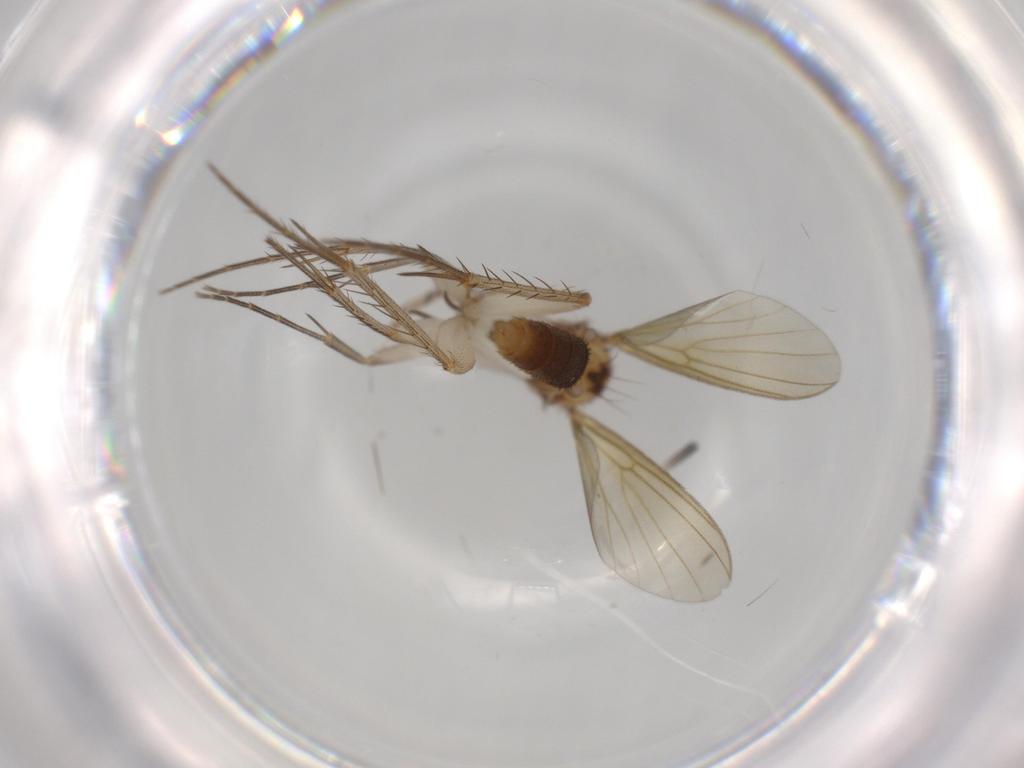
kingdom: Animalia
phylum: Arthropoda
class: Insecta
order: Diptera
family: Mycetophilidae
